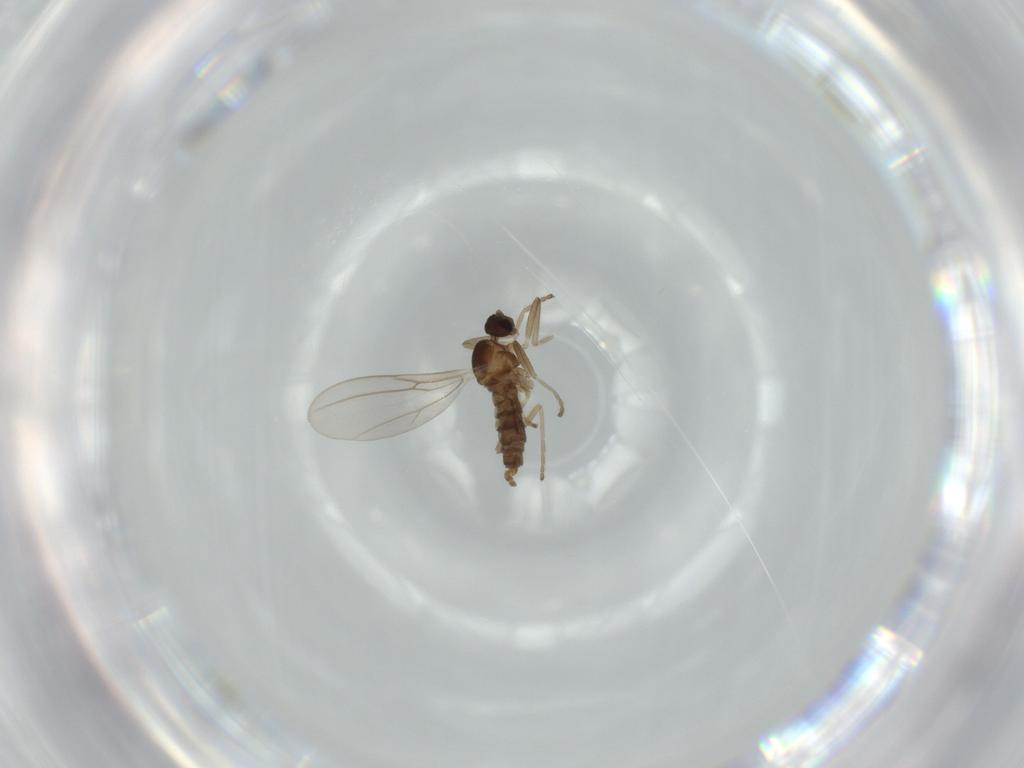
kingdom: Animalia
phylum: Arthropoda
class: Insecta
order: Diptera
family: Cecidomyiidae
